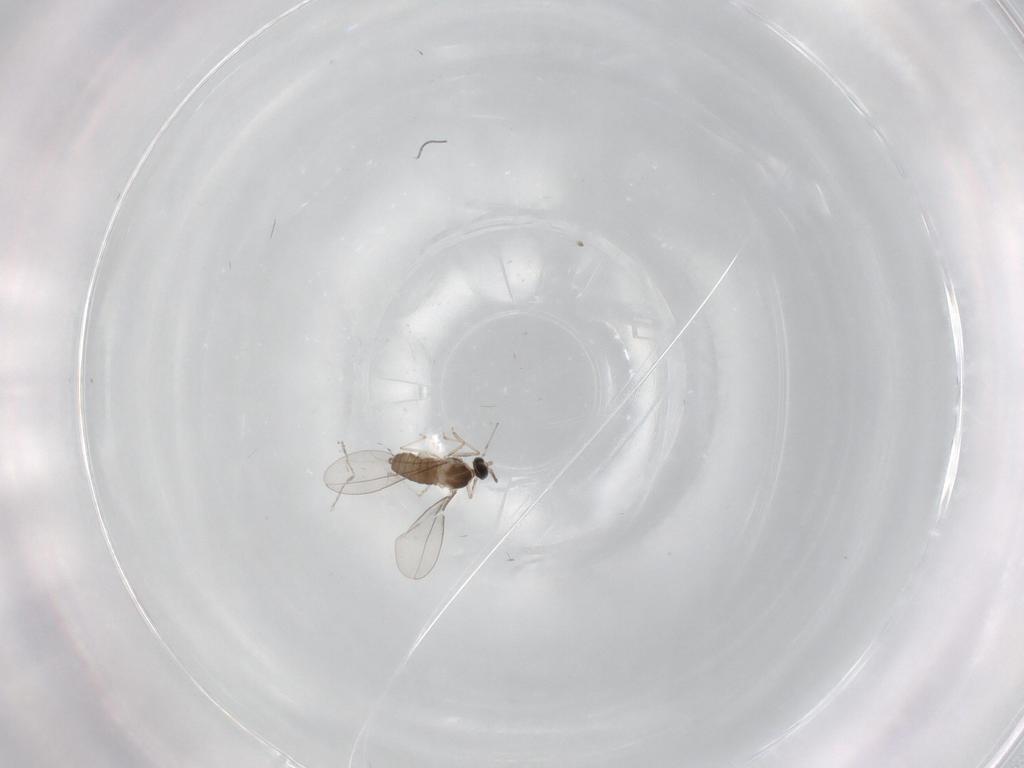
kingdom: Animalia
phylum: Arthropoda
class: Insecta
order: Diptera
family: Cecidomyiidae
